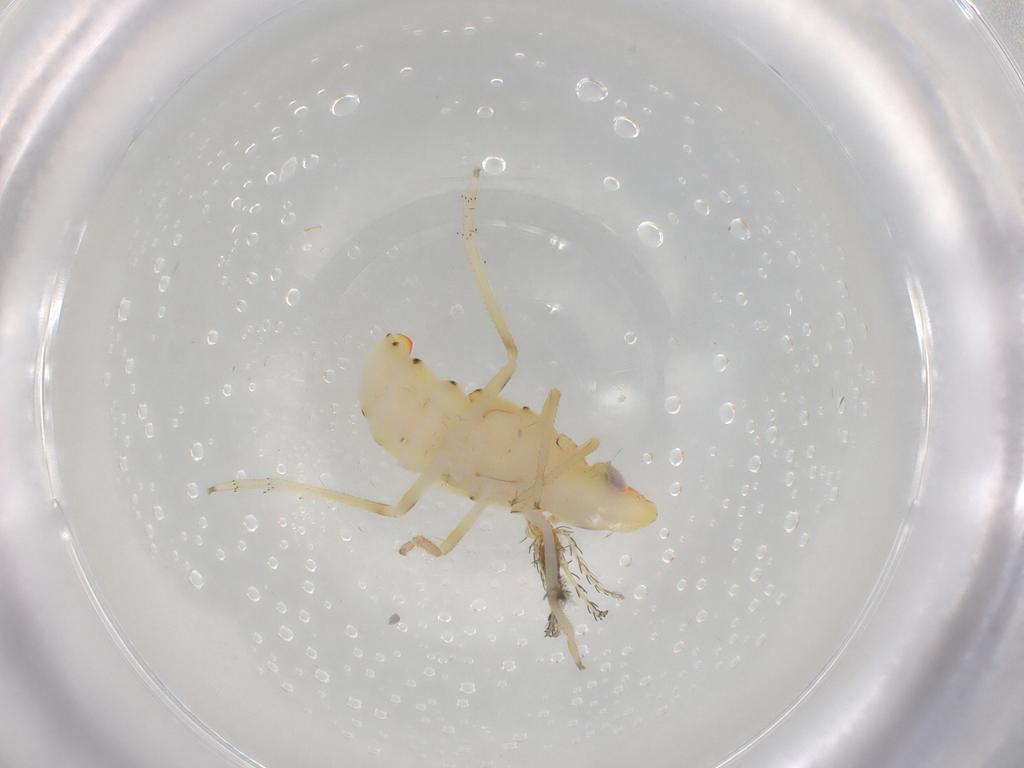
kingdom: Animalia
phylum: Arthropoda
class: Insecta
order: Hemiptera
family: Tropiduchidae
